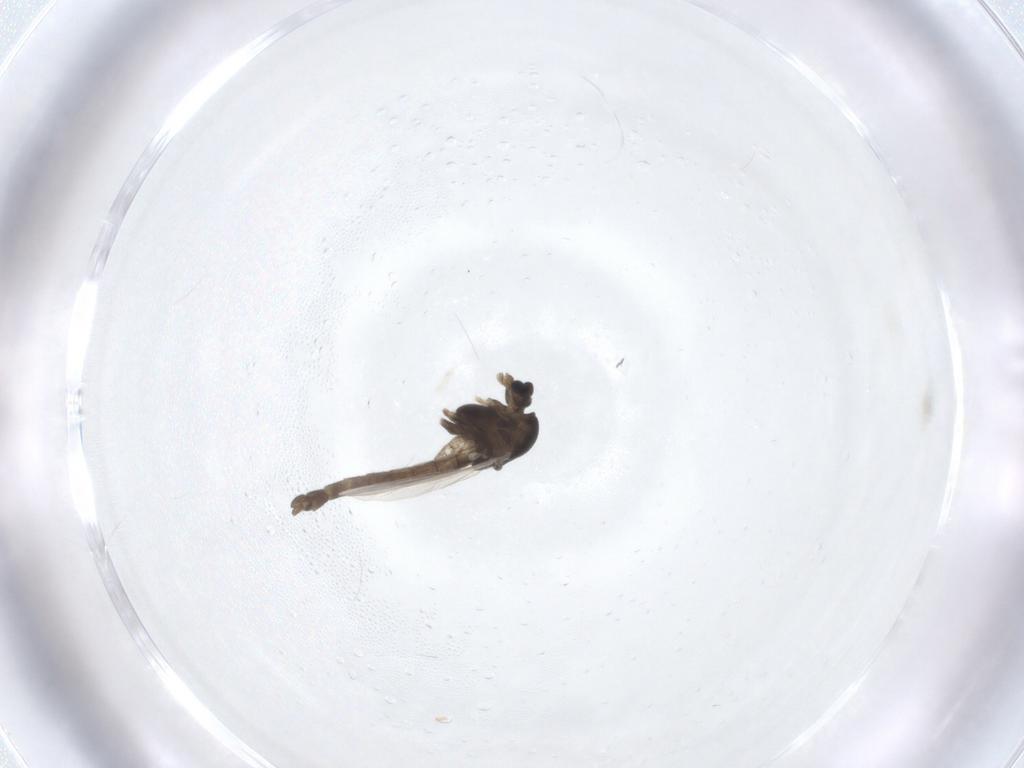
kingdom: Animalia
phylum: Arthropoda
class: Insecta
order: Diptera
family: Chironomidae
